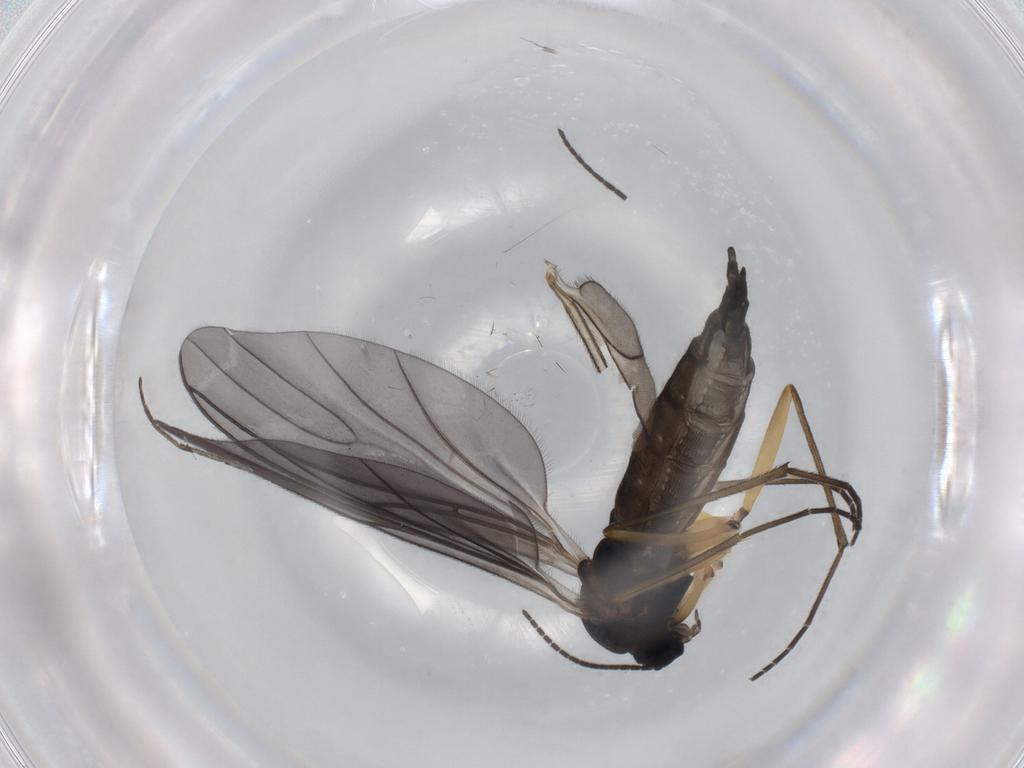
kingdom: Animalia
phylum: Arthropoda
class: Insecta
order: Diptera
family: Sciaridae
